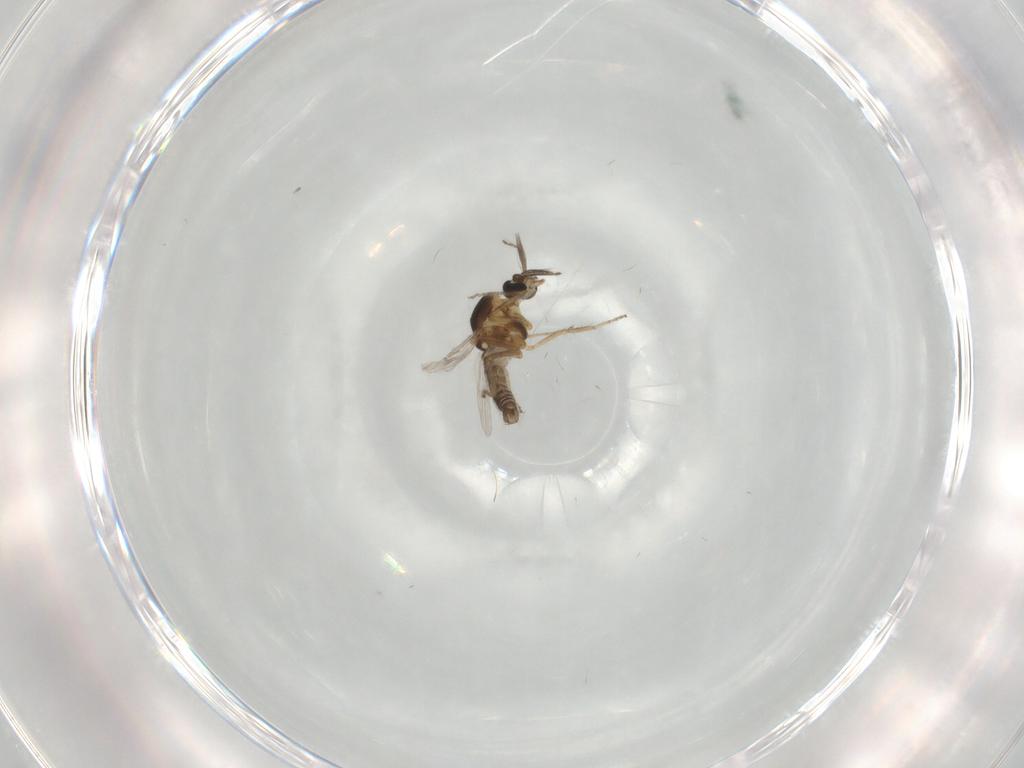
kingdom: Animalia
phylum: Arthropoda
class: Insecta
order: Diptera
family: Ceratopogonidae
